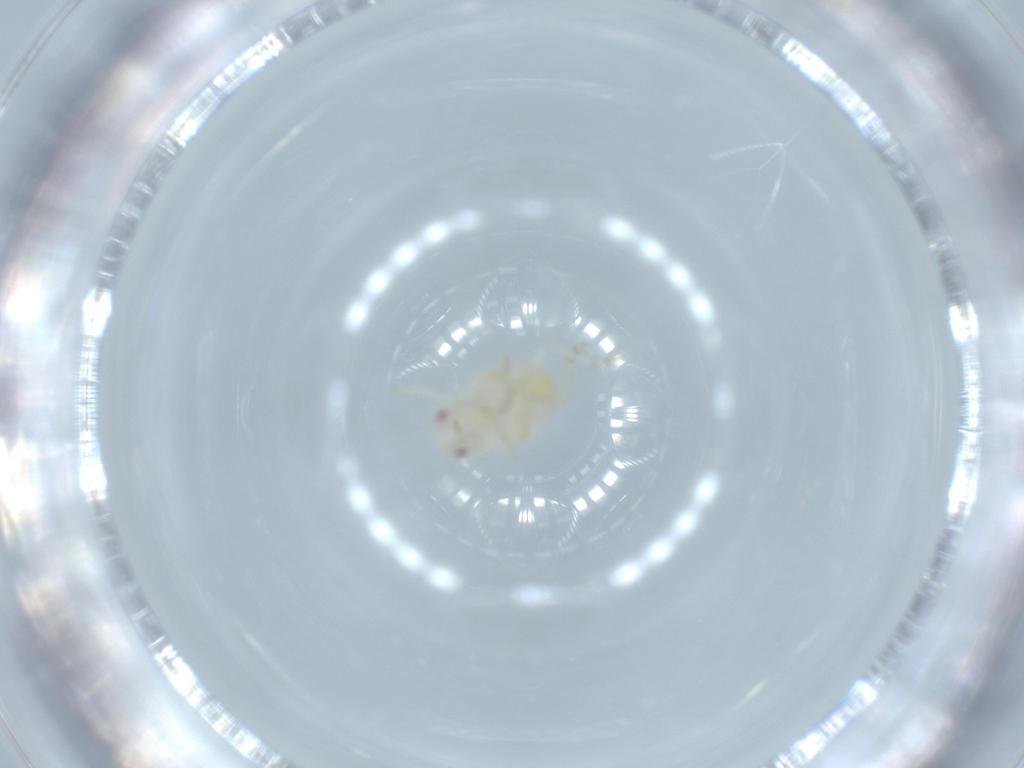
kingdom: Animalia
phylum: Arthropoda
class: Insecta
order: Hemiptera
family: Flatidae
